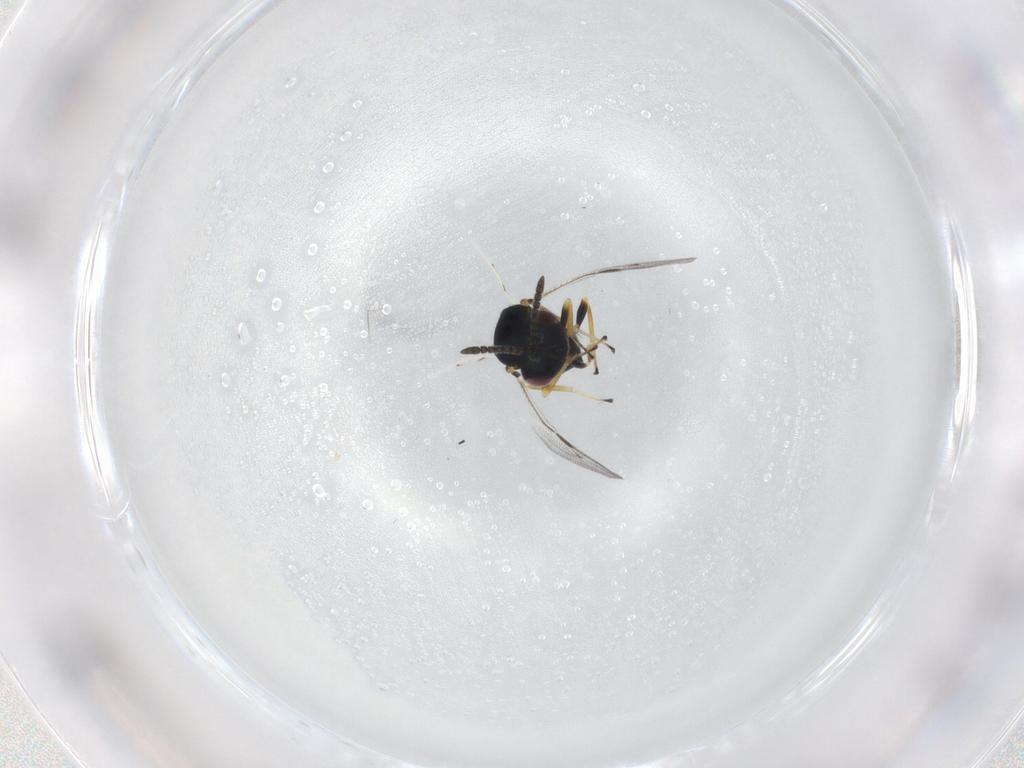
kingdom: Animalia
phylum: Arthropoda
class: Insecta
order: Hymenoptera
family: Pteromalidae
